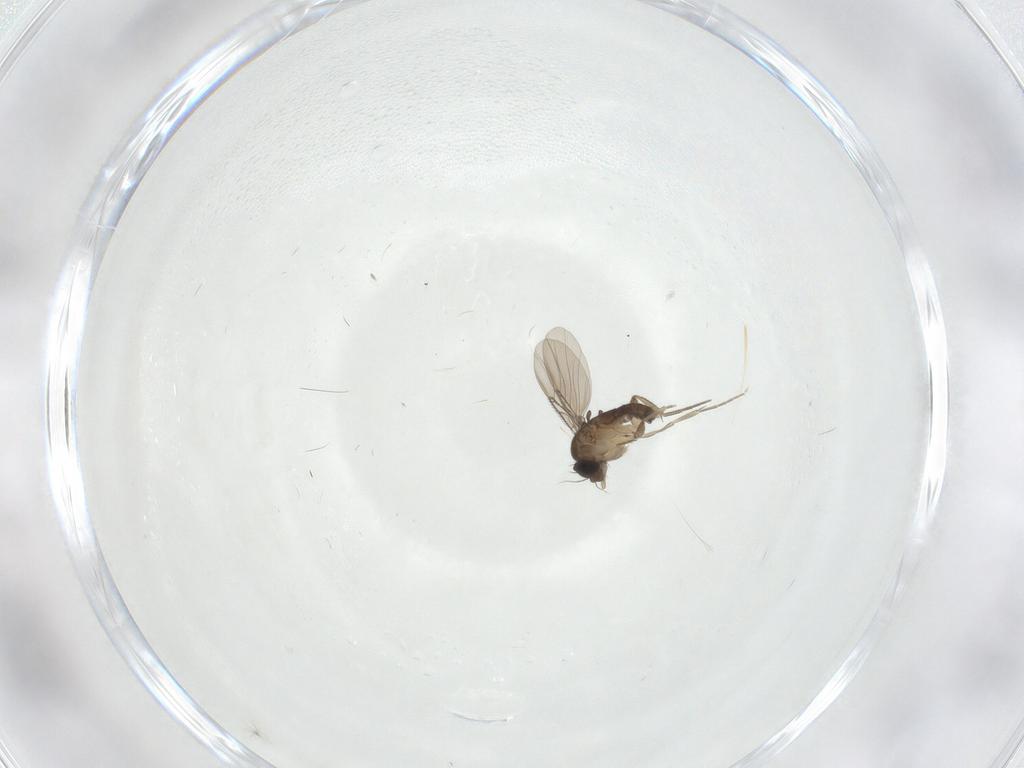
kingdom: Animalia
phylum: Arthropoda
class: Insecta
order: Diptera
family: Phoridae
